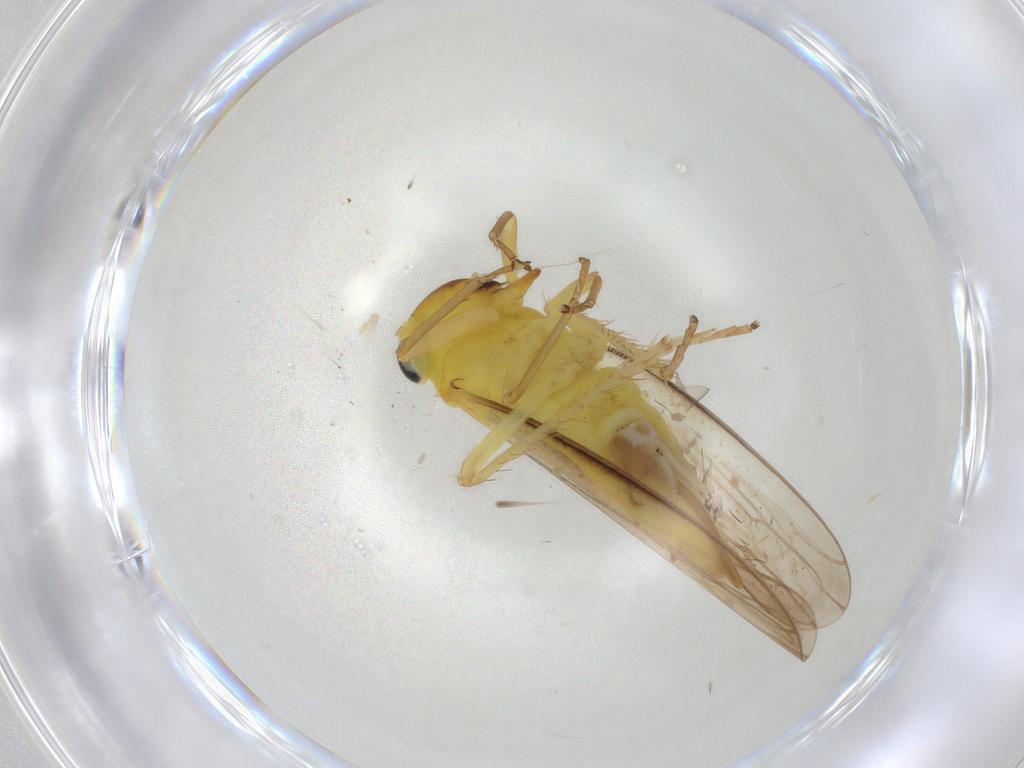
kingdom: Animalia
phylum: Arthropoda
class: Insecta
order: Hemiptera
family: Cicadellidae
